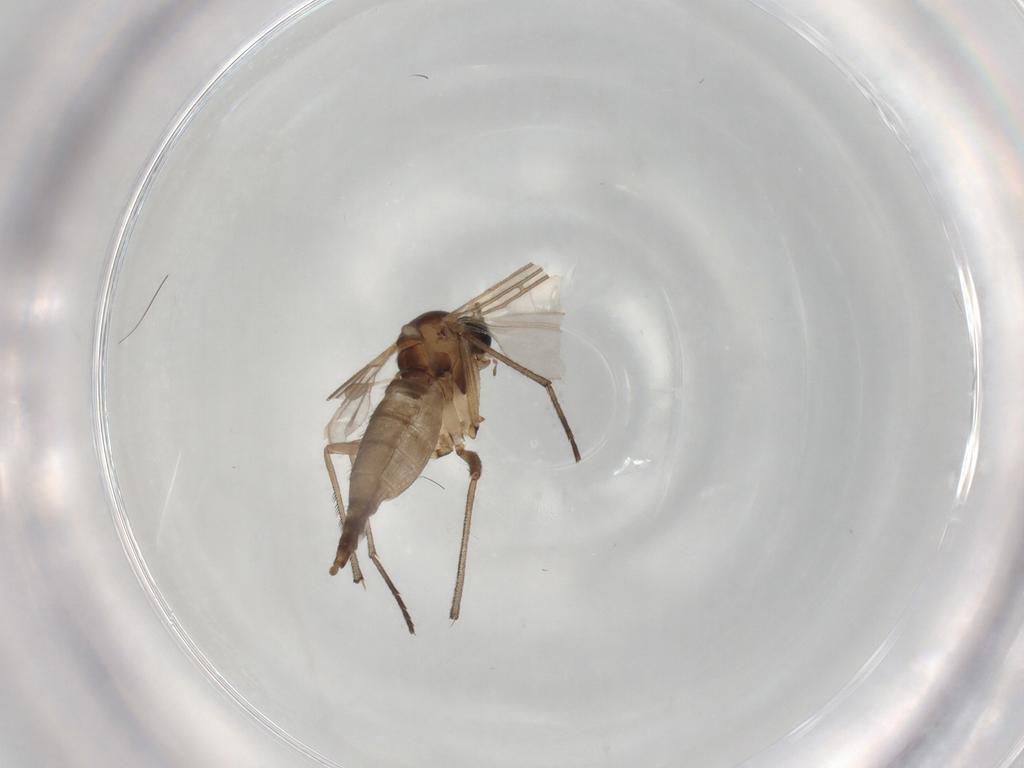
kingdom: Animalia
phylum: Arthropoda
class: Insecta
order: Diptera
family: Sciaridae
